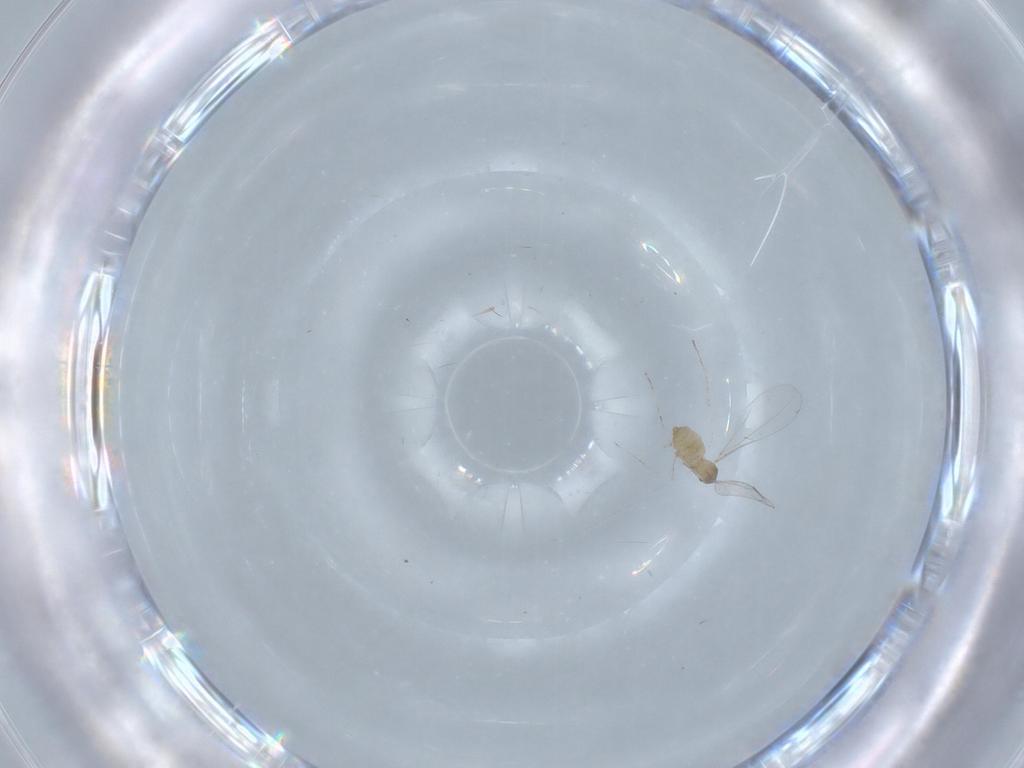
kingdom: Animalia
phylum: Arthropoda
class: Insecta
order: Diptera
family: Cecidomyiidae
